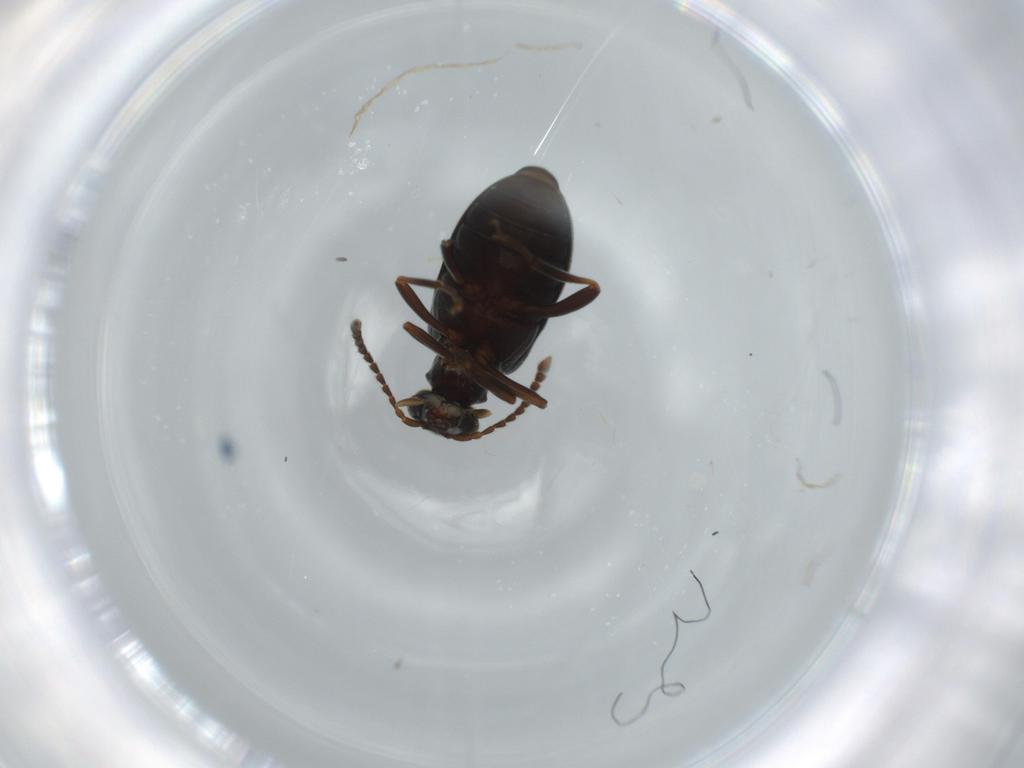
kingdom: Animalia
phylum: Arthropoda
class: Insecta
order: Coleoptera
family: Aderidae
